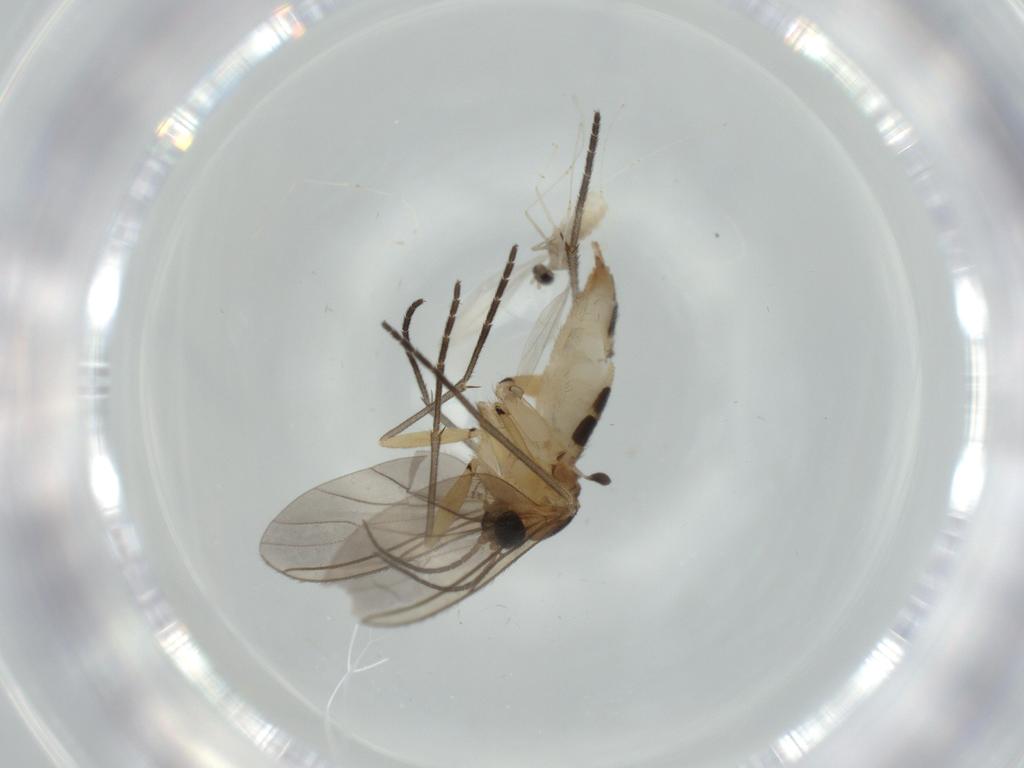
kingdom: Animalia
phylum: Arthropoda
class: Insecta
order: Diptera
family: Sciaridae
